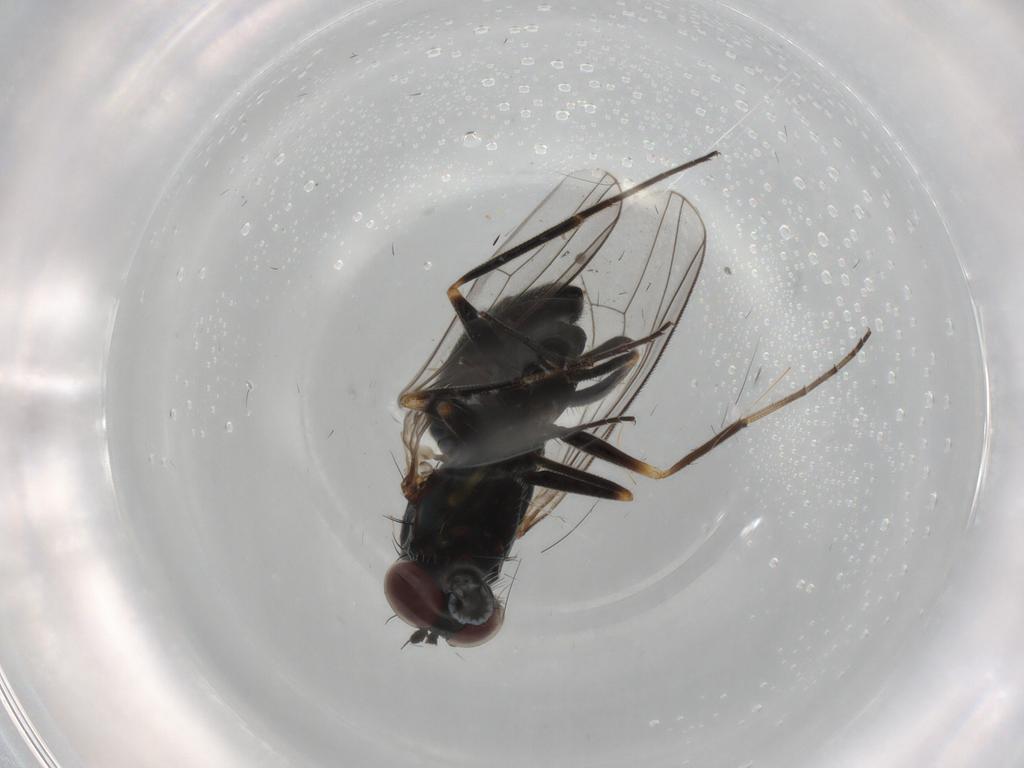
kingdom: Animalia
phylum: Arthropoda
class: Insecta
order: Diptera
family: Dolichopodidae
